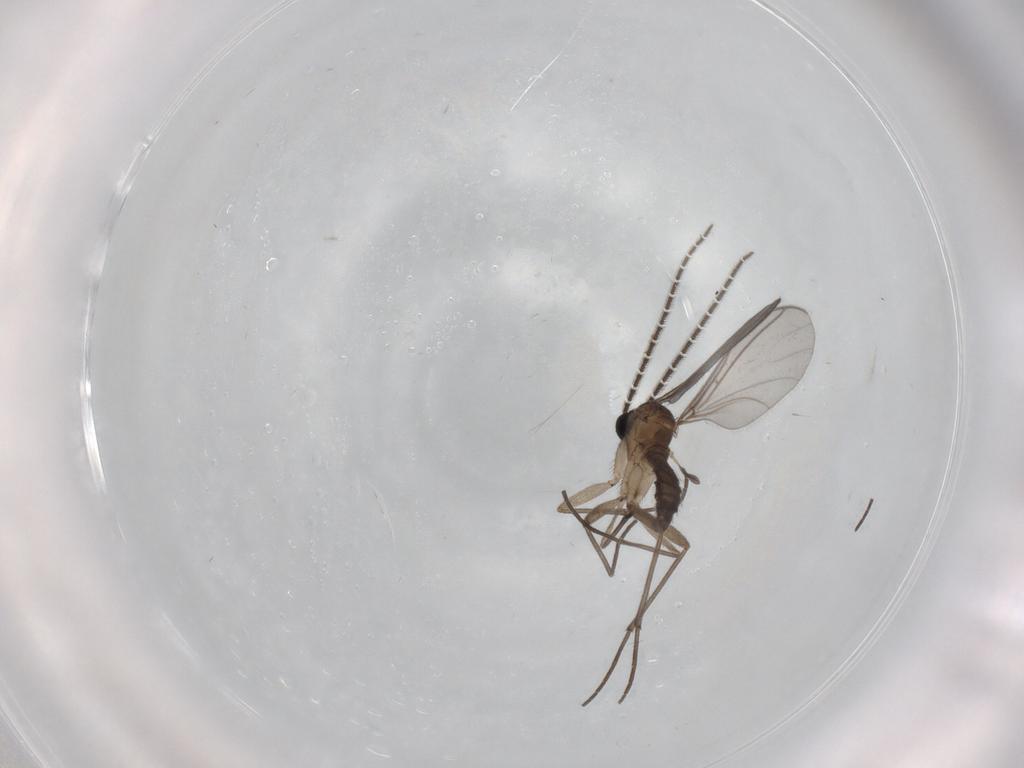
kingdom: Animalia
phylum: Arthropoda
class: Insecta
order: Diptera
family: Sciaridae
